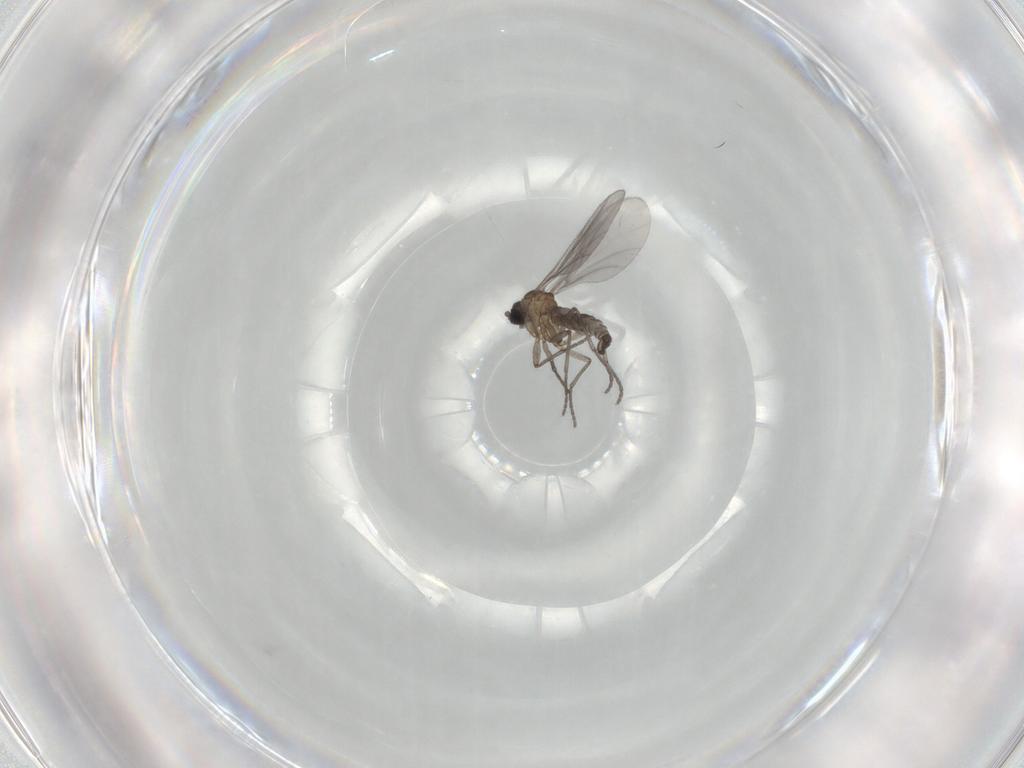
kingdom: Animalia
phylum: Arthropoda
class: Insecta
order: Diptera
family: Sciaridae
